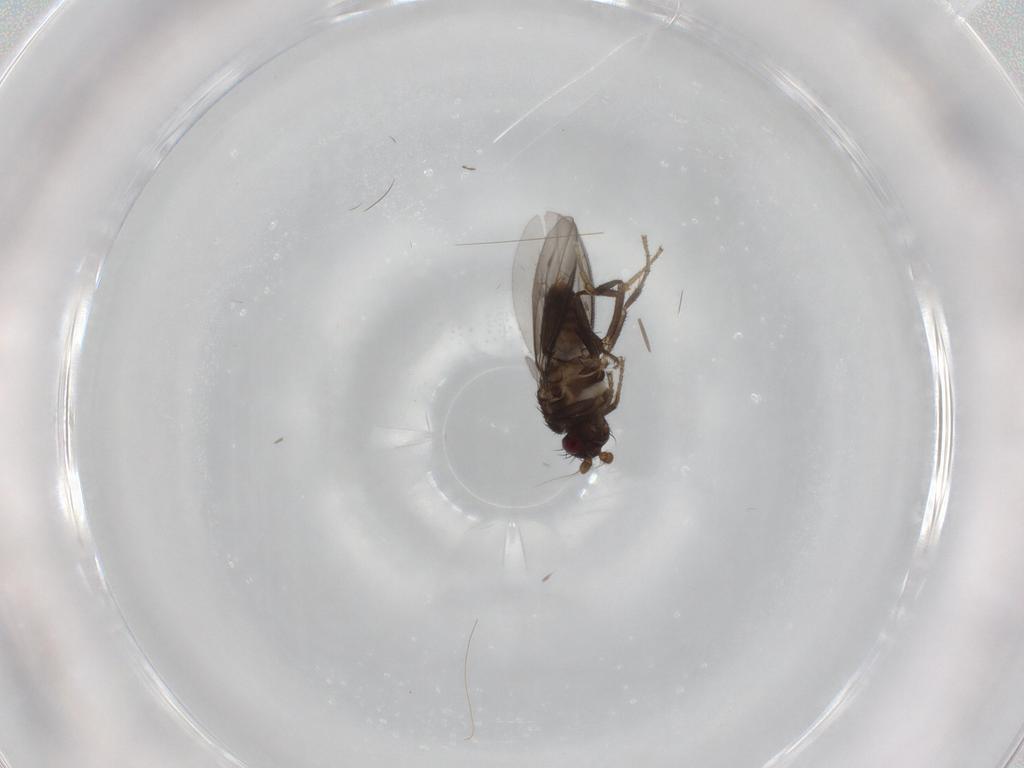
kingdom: Animalia
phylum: Arthropoda
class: Insecta
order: Diptera
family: Sphaeroceridae
